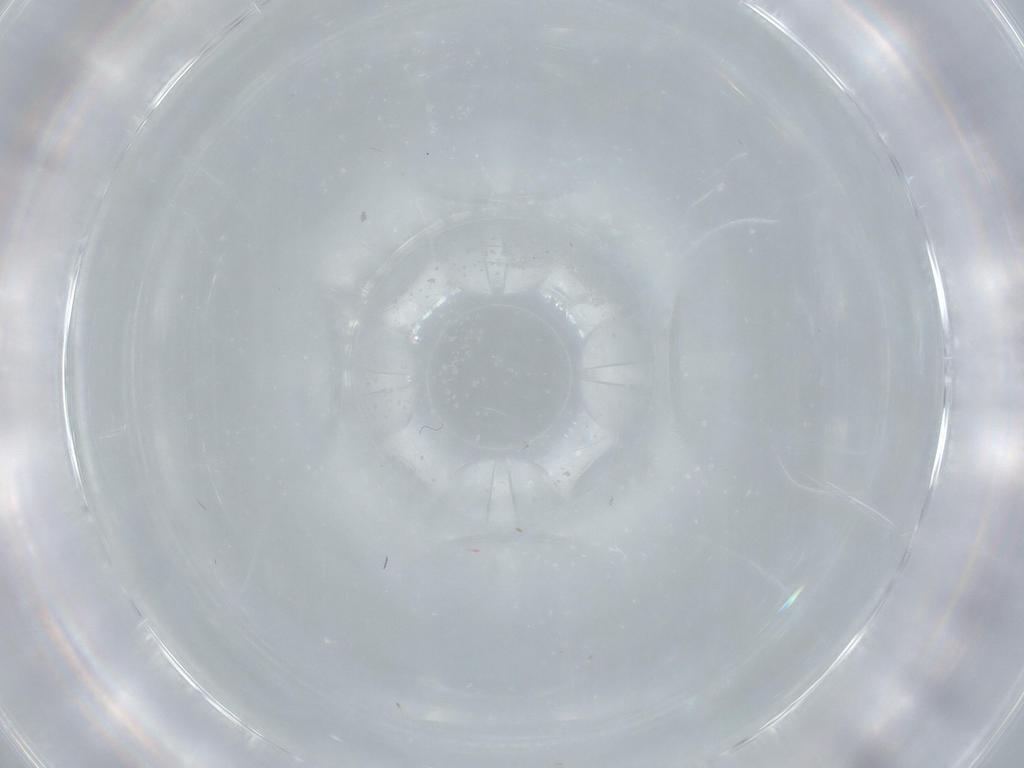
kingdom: Animalia
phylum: Arthropoda
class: Insecta
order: Diptera
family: Chironomidae
